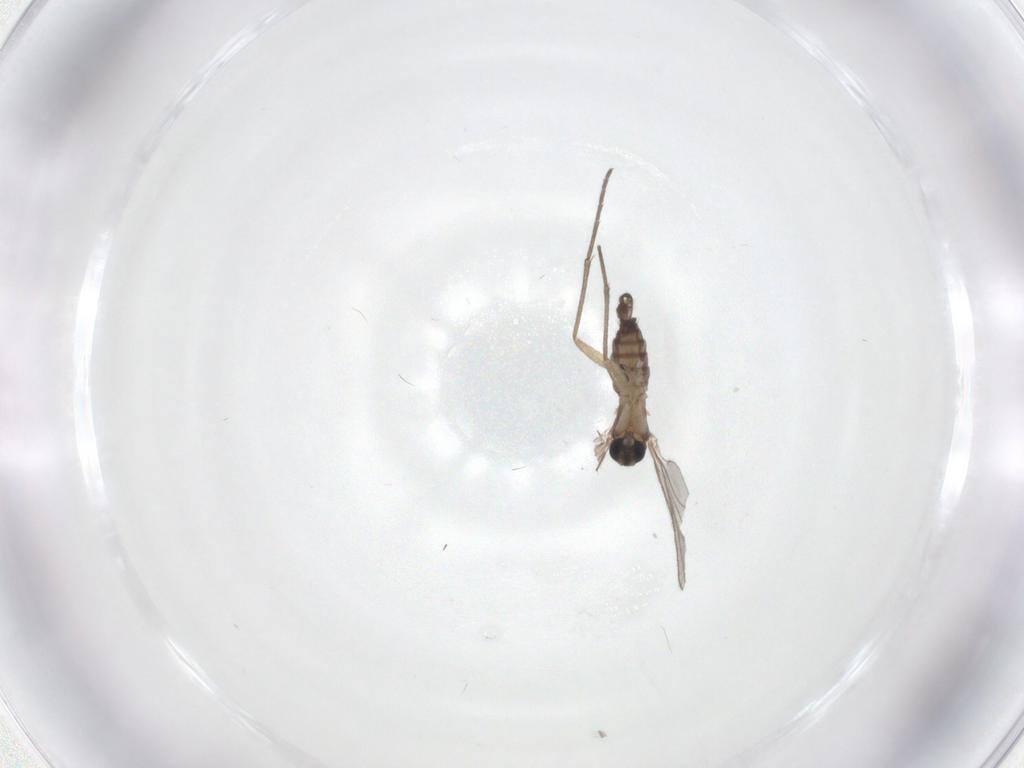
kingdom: Animalia
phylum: Arthropoda
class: Insecta
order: Diptera
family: Sciaridae
